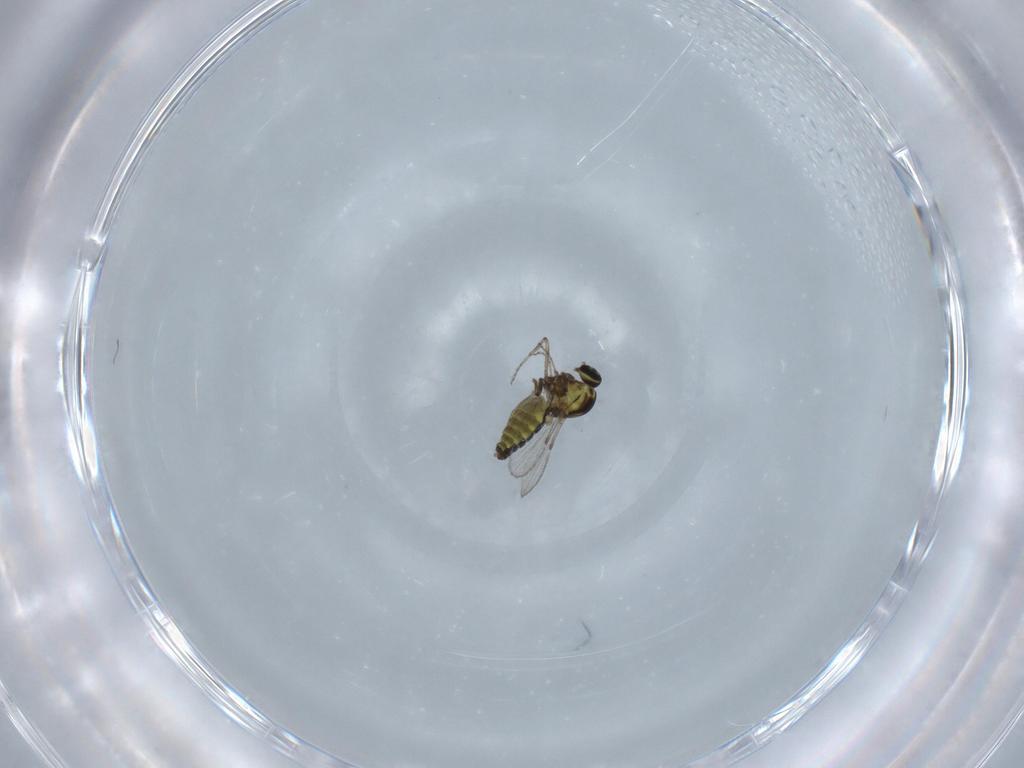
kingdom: Animalia
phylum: Arthropoda
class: Insecta
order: Diptera
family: Ceratopogonidae
